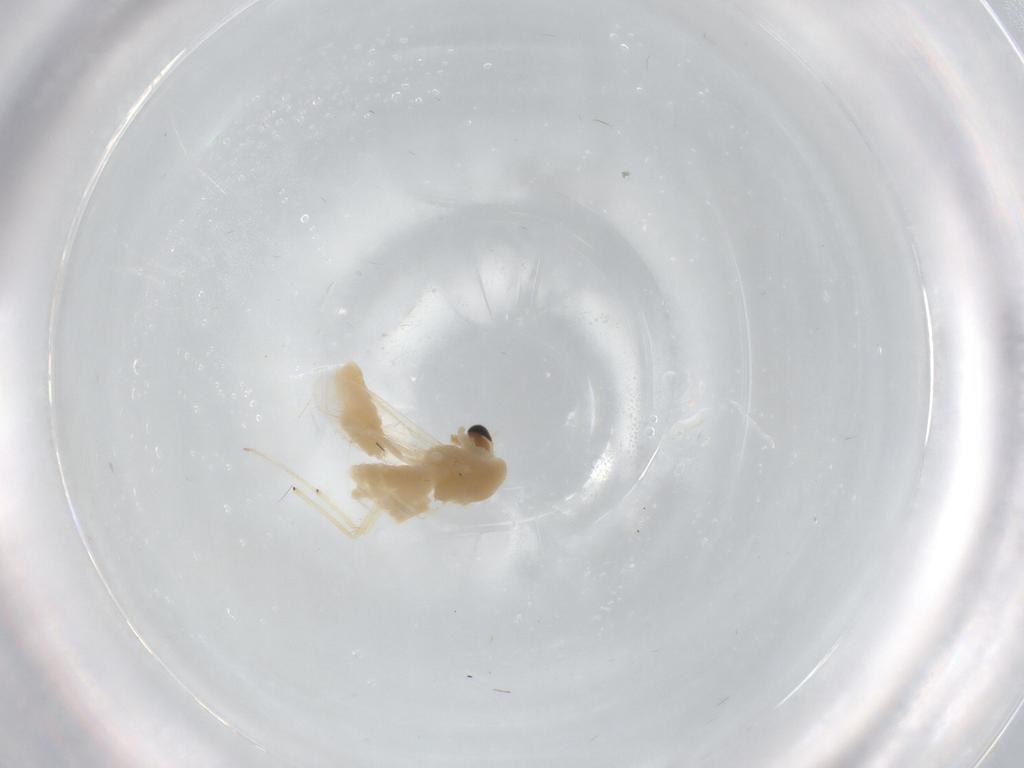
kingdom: Animalia
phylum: Arthropoda
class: Insecta
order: Diptera
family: Chironomidae
